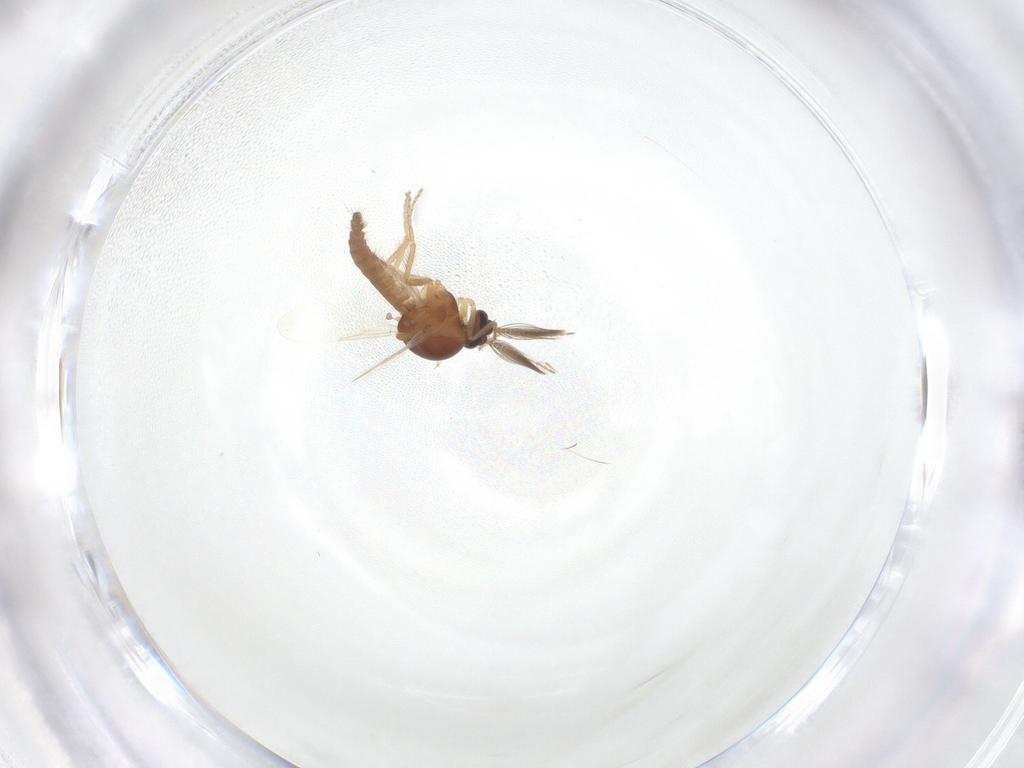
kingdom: Animalia
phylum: Arthropoda
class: Insecta
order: Diptera
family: Ceratopogonidae
